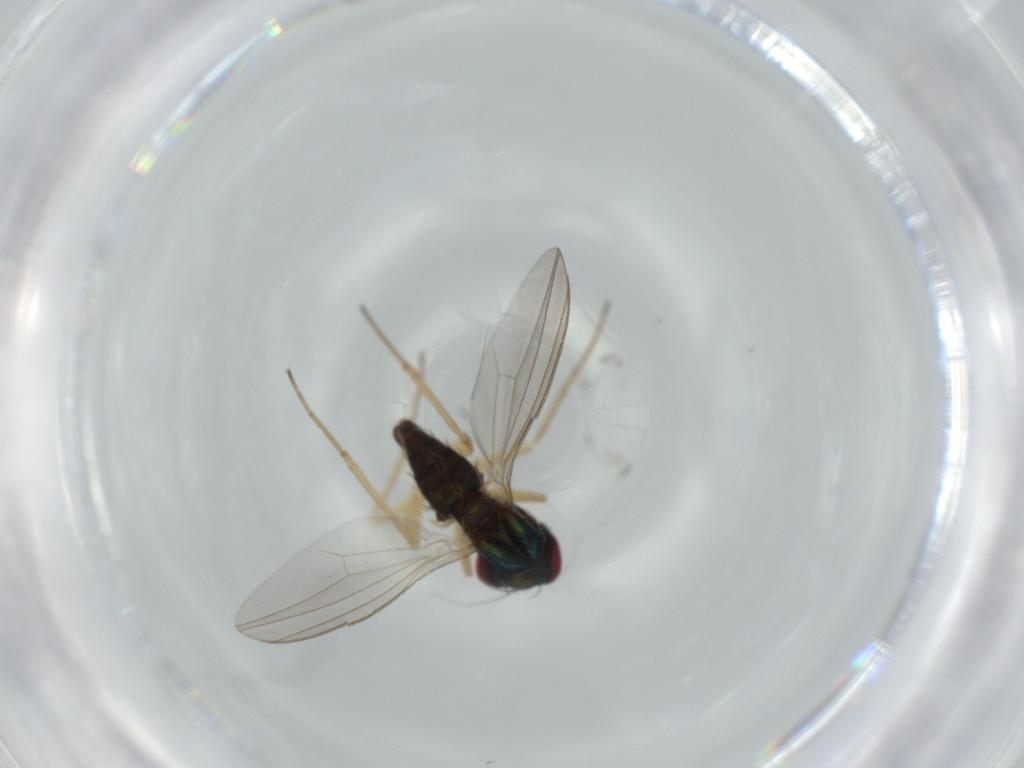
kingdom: Animalia
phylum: Arthropoda
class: Insecta
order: Diptera
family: Dolichopodidae
